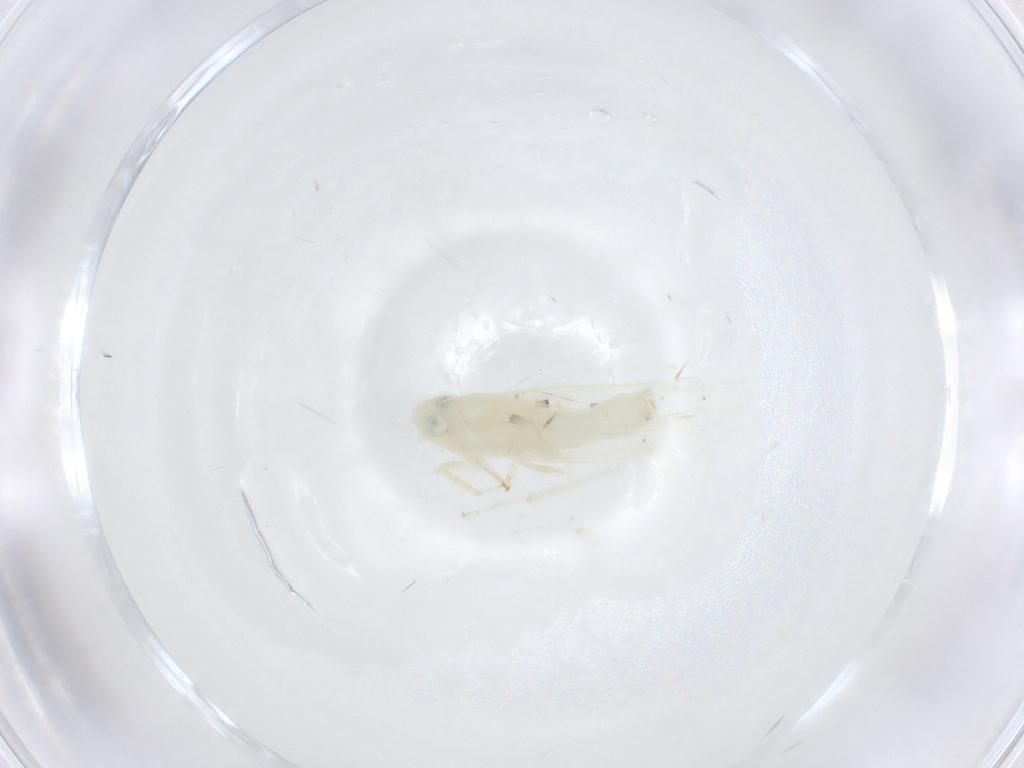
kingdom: Animalia
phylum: Arthropoda
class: Insecta
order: Hemiptera
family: Cicadellidae
